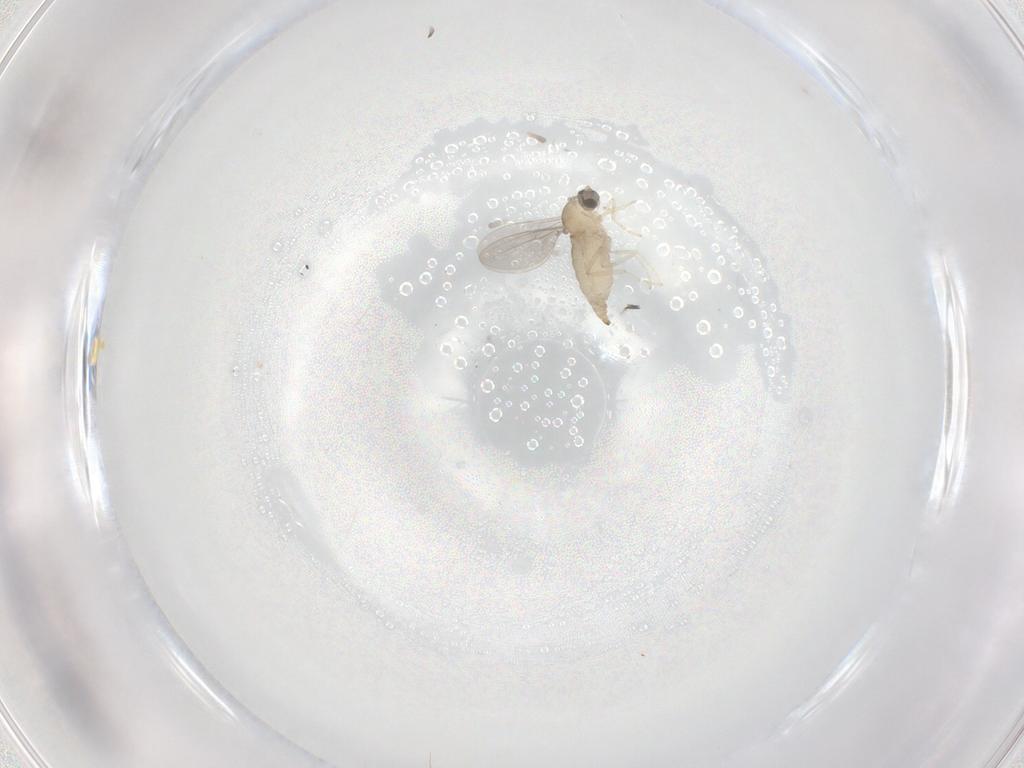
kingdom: Animalia
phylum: Arthropoda
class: Insecta
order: Diptera
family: Cecidomyiidae
